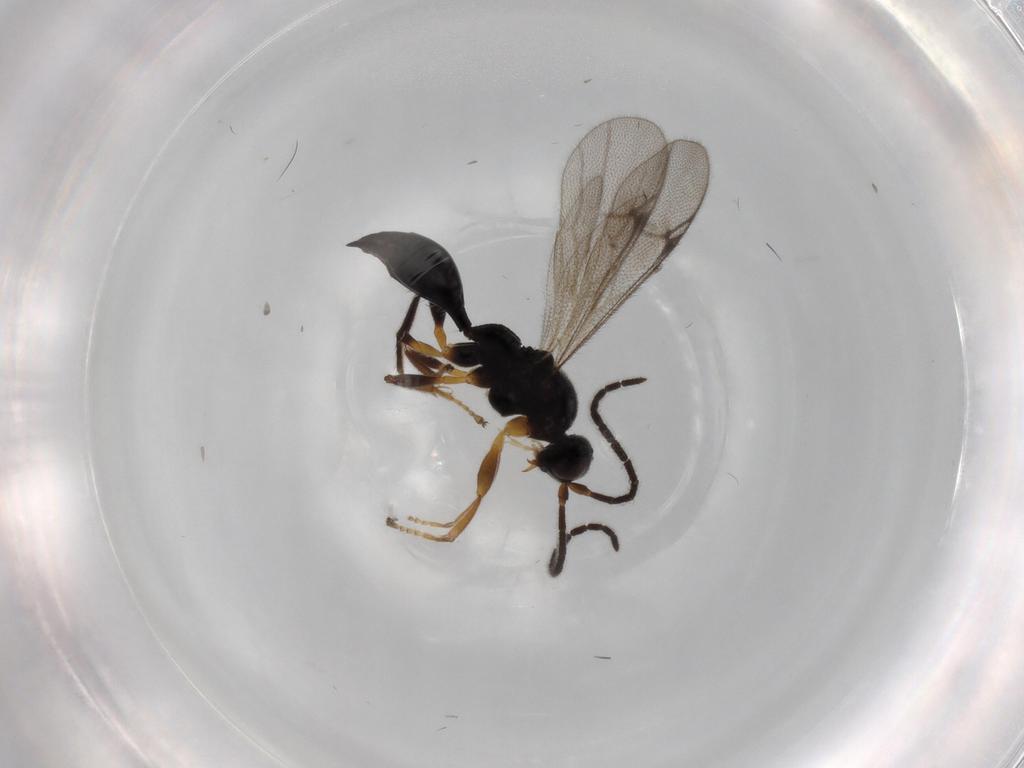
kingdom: Animalia
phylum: Arthropoda
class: Insecta
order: Hymenoptera
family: Proctotrupidae
